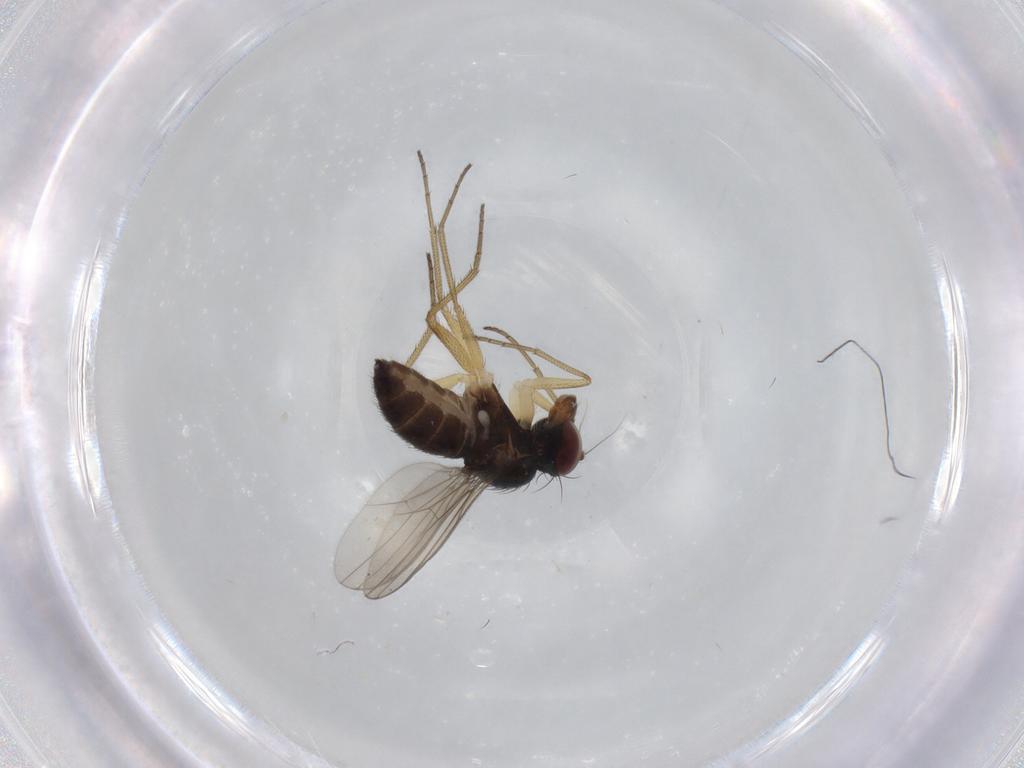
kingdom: Animalia
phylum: Arthropoda
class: Insecta
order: Diptera
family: Dolichopodidae
